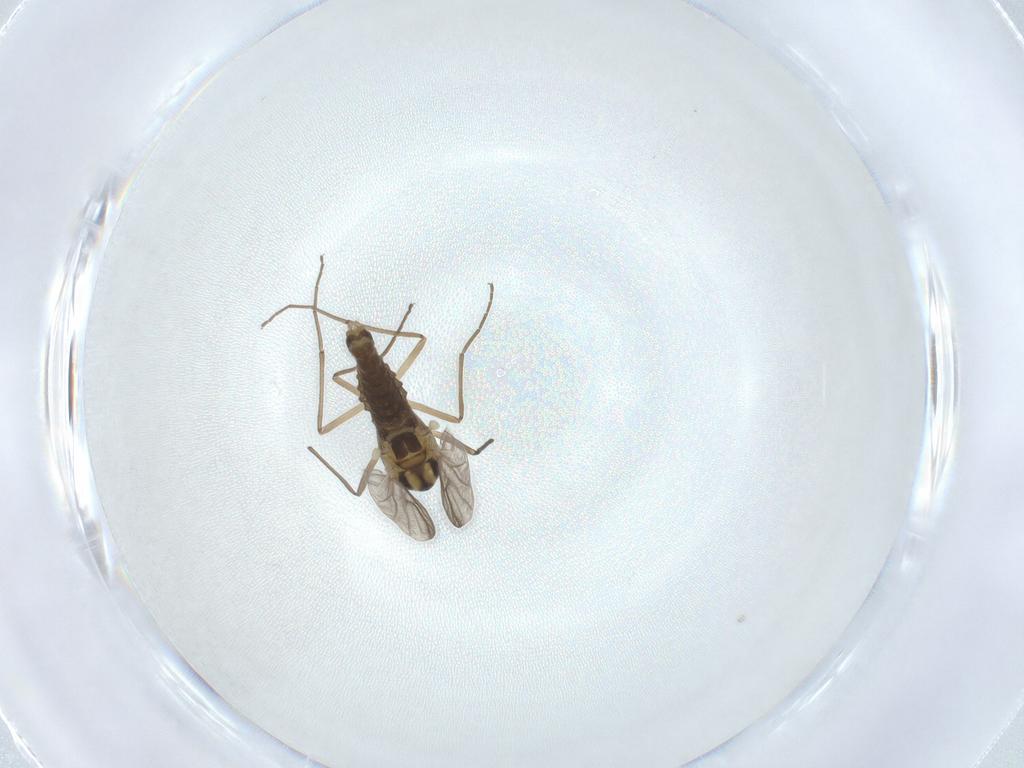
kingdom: Animalia
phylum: Arthropoda
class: Insecta
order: Diptera
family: Chironomidae
